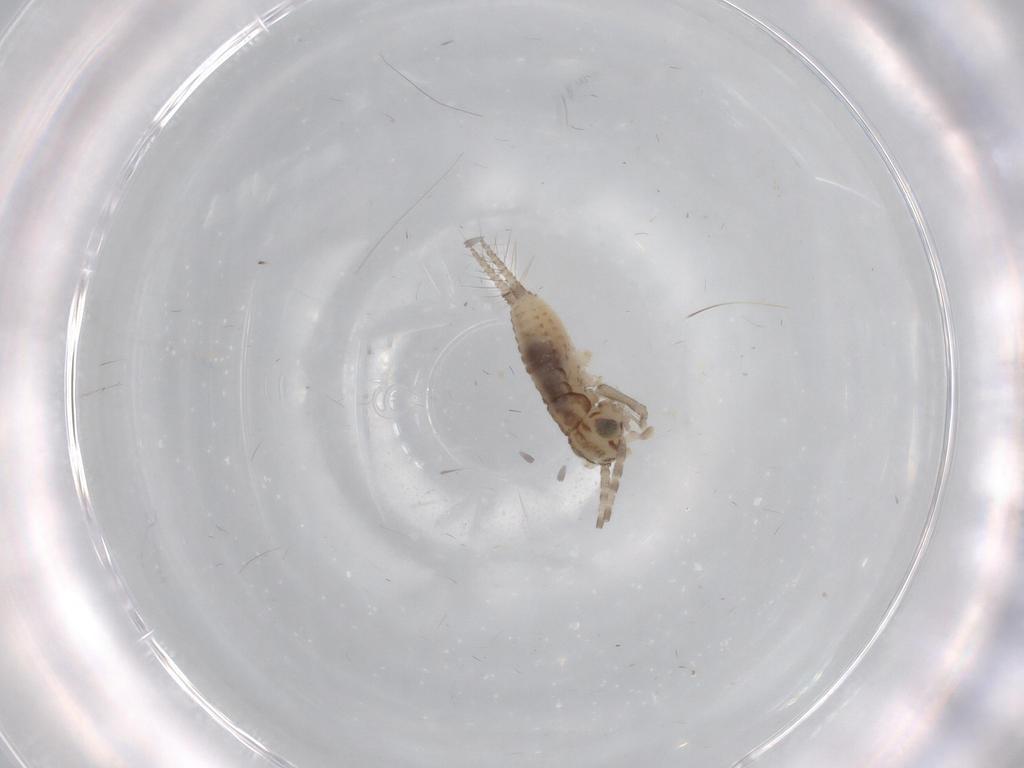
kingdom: Animalia
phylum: Arthropoda
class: Insecta
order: Orthoptera
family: Trigonidiidae
